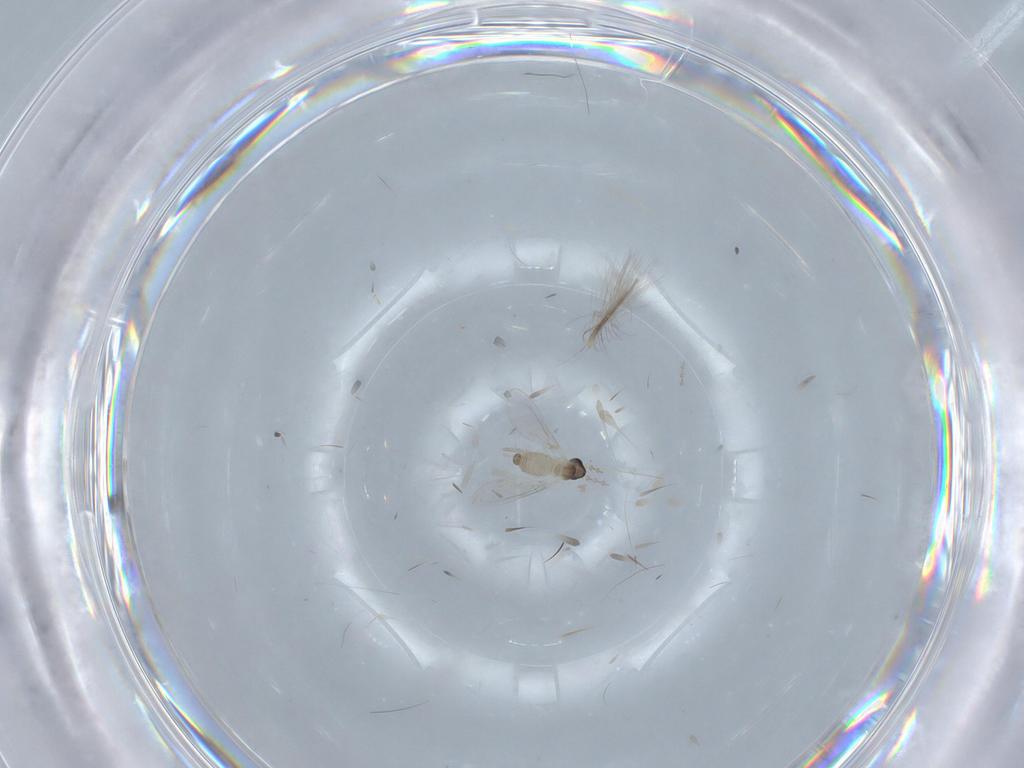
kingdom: Animalia
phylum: Arthropoda
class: Insecta
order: Diptera
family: Cecidomyiidae
